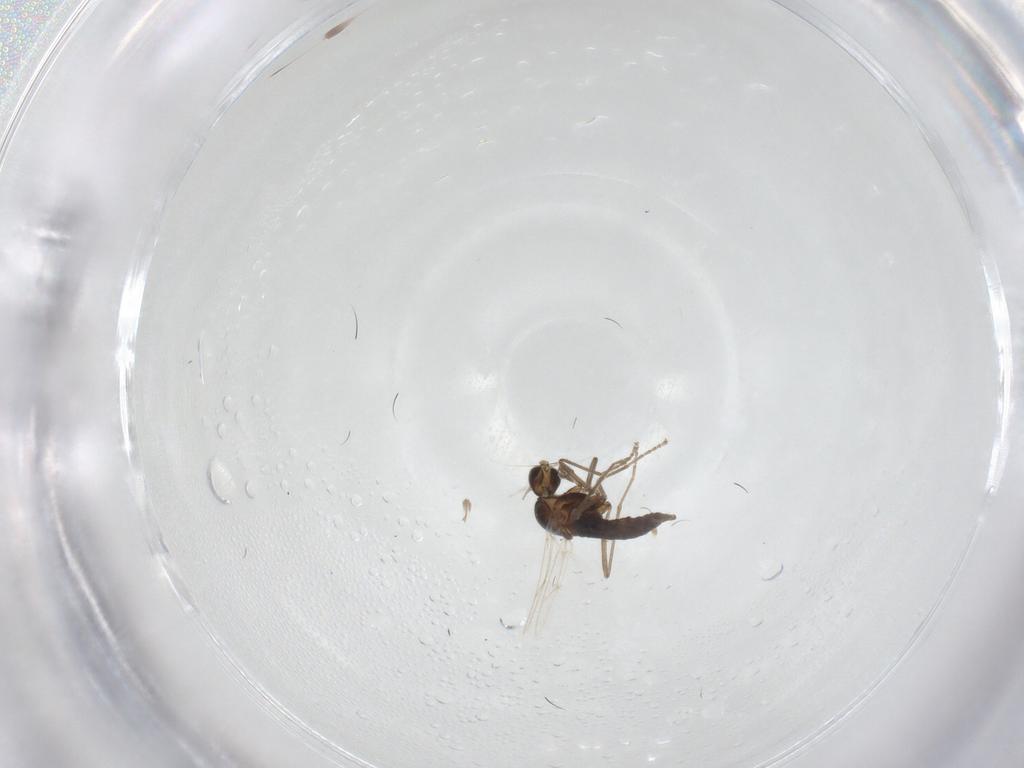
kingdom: Animalia
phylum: Arthropoda
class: Insecta
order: Diptera
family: Cecidomyiidae
